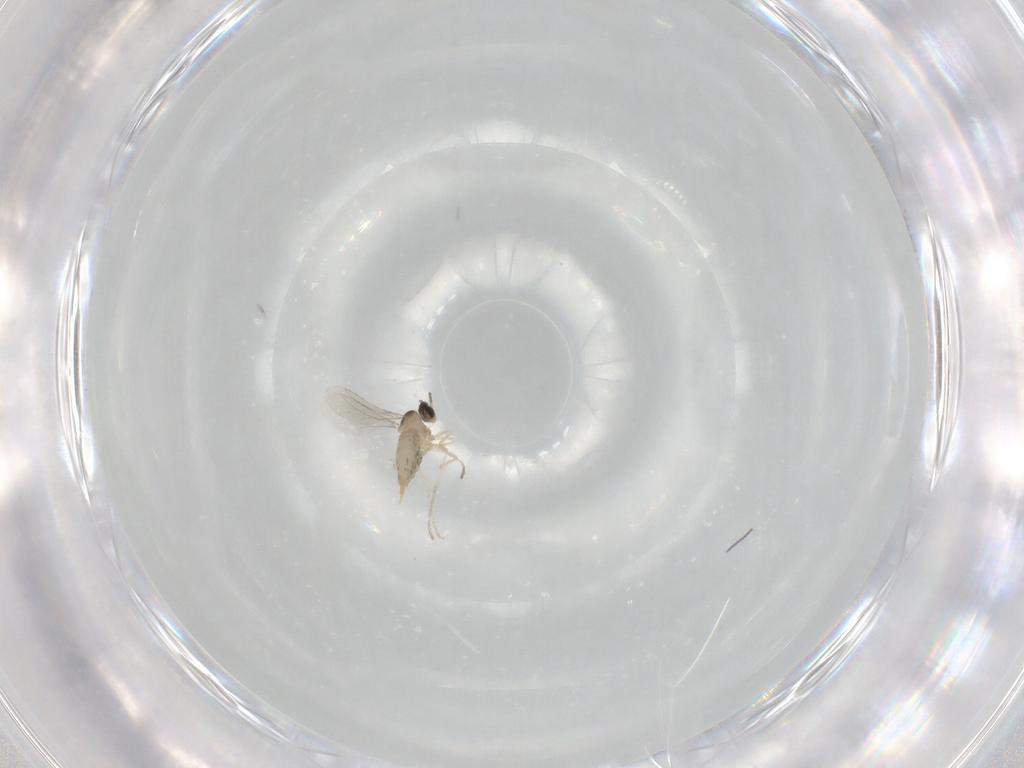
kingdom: Animalia
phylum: Arthropoda
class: Insecta
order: Diptera
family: Cecidomyiidae
